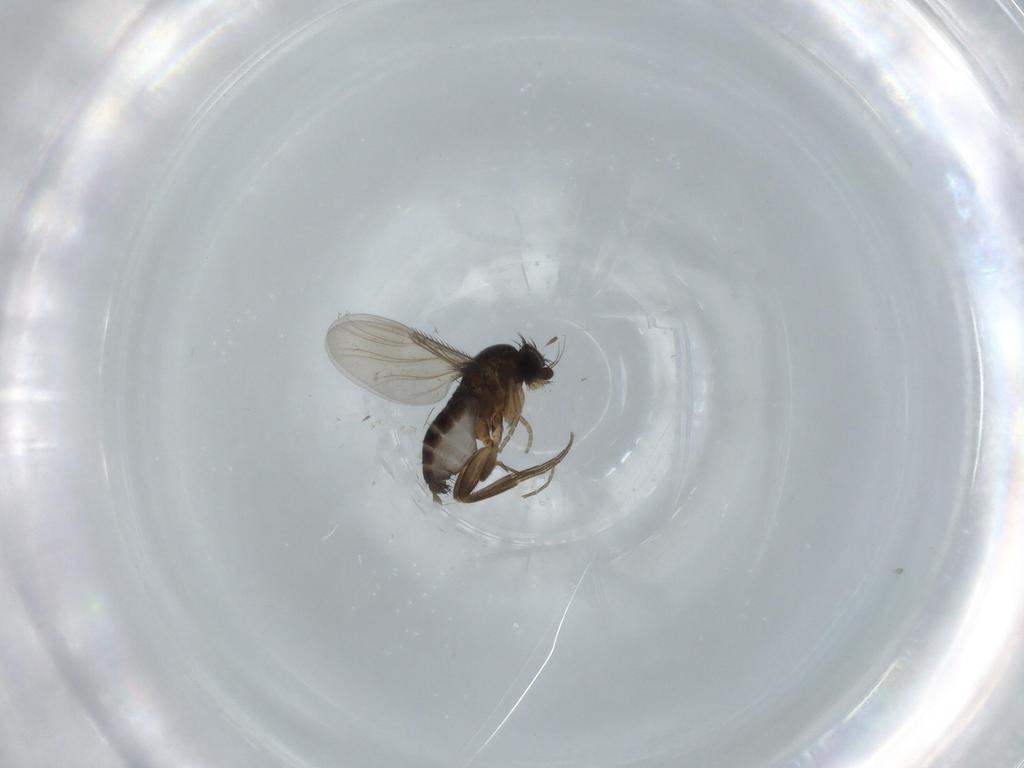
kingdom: Animalia
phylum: Arthropoda
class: Insecta
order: Diptera
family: Phoridae
